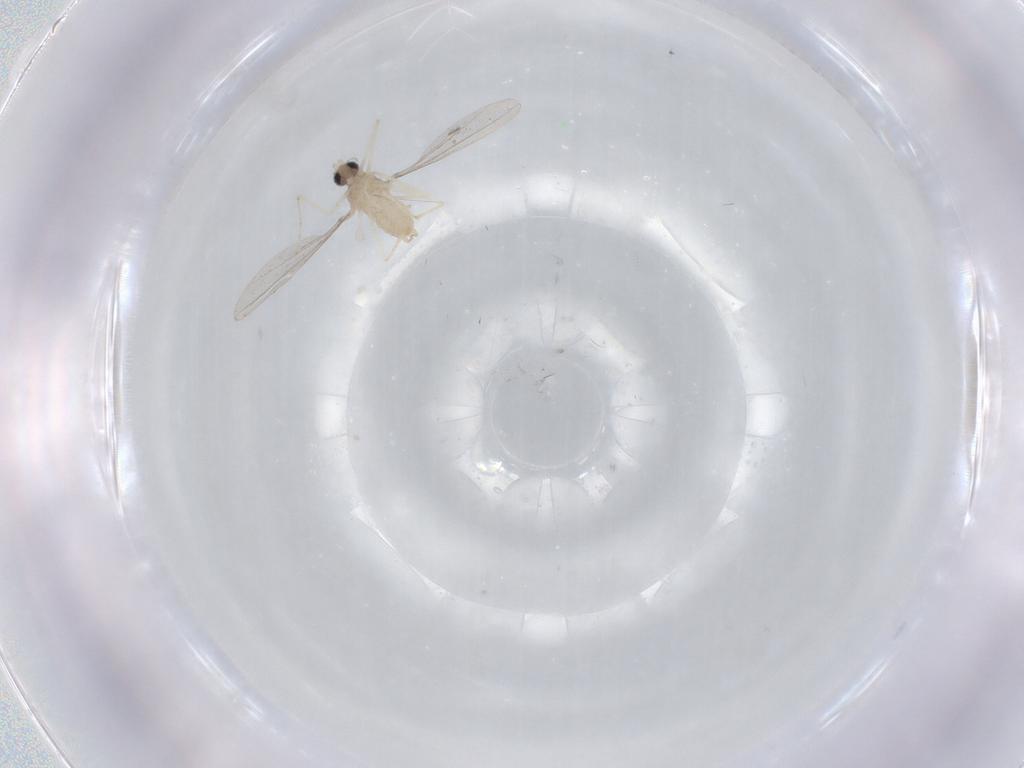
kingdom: Animalia
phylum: Arthropoda
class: Insecta
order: Diptera
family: Cecidomyiidae
